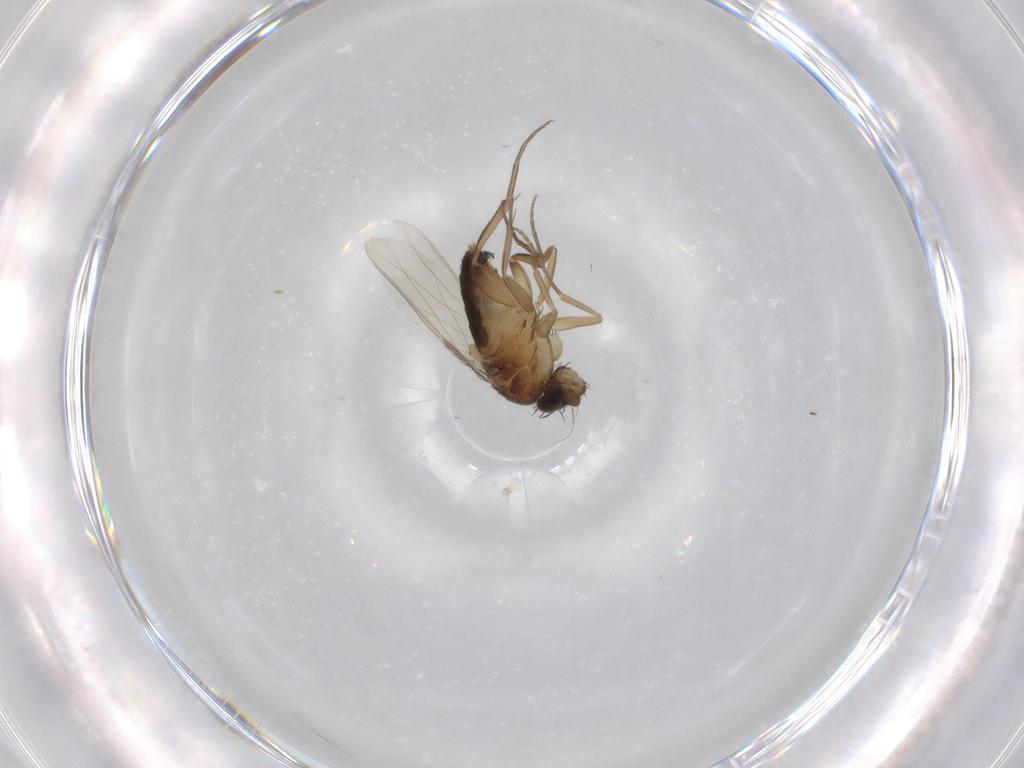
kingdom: Animalia
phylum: Arthropoda
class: Insecta
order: Diptera
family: Phoridae
